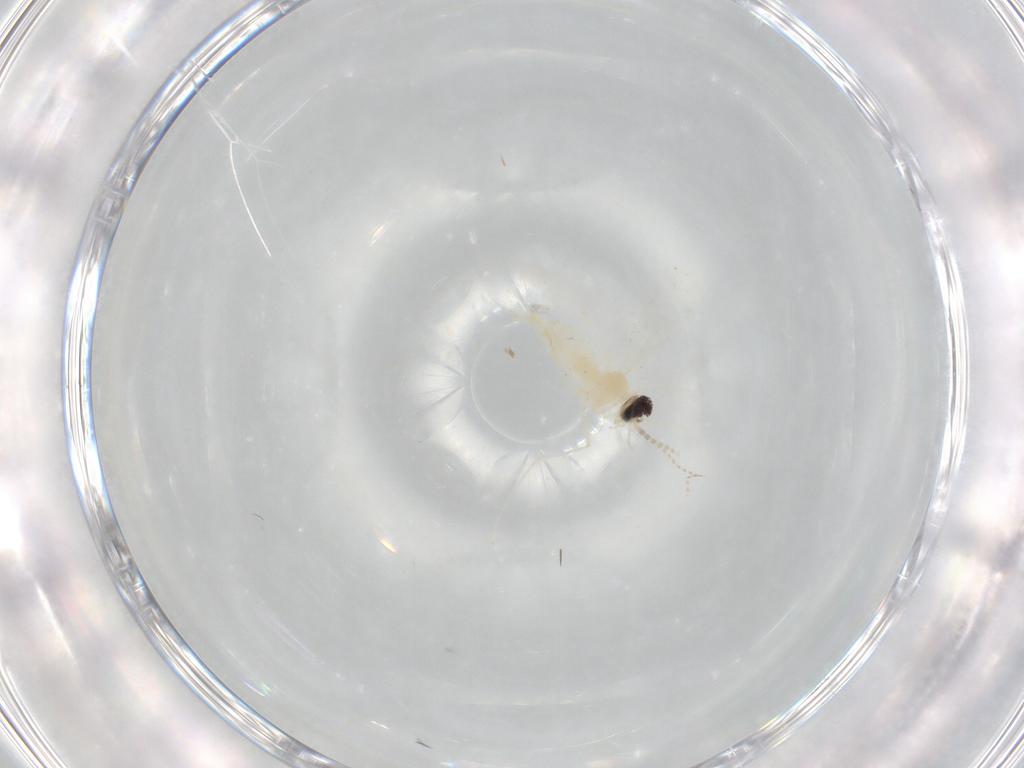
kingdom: Animalia
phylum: Arthropoda
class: Insecta
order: Diptera
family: Cecidomyiidae
